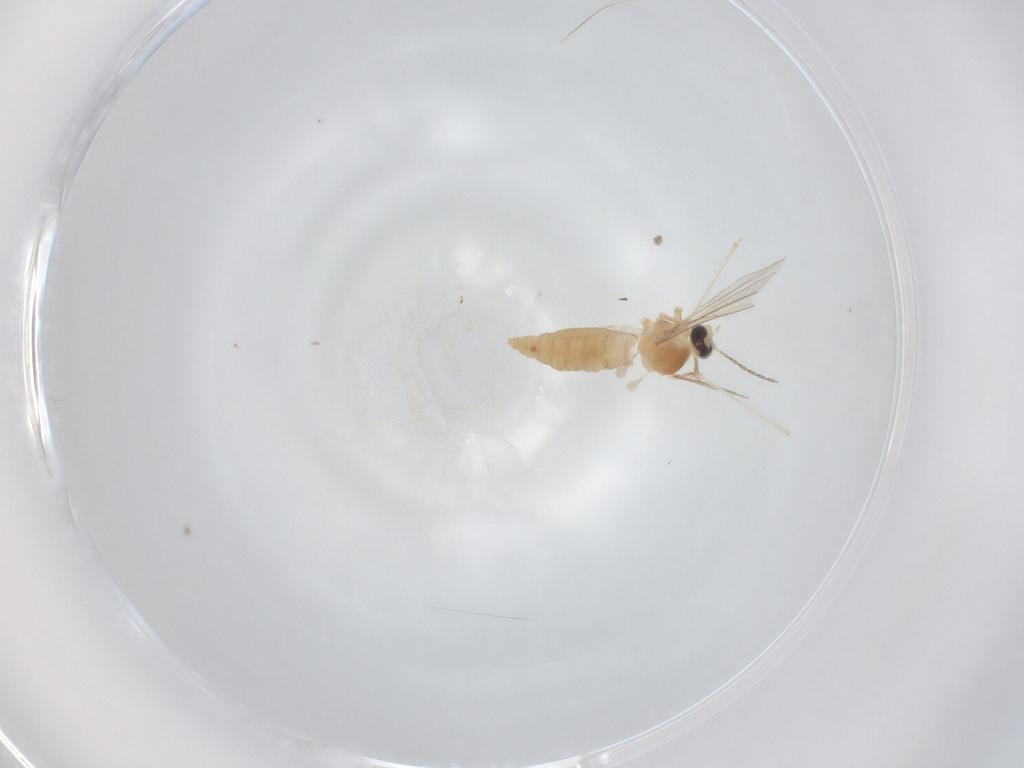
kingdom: Animalia
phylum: Arthropoda
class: Insecta
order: Diptera
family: Lauxaniidae
